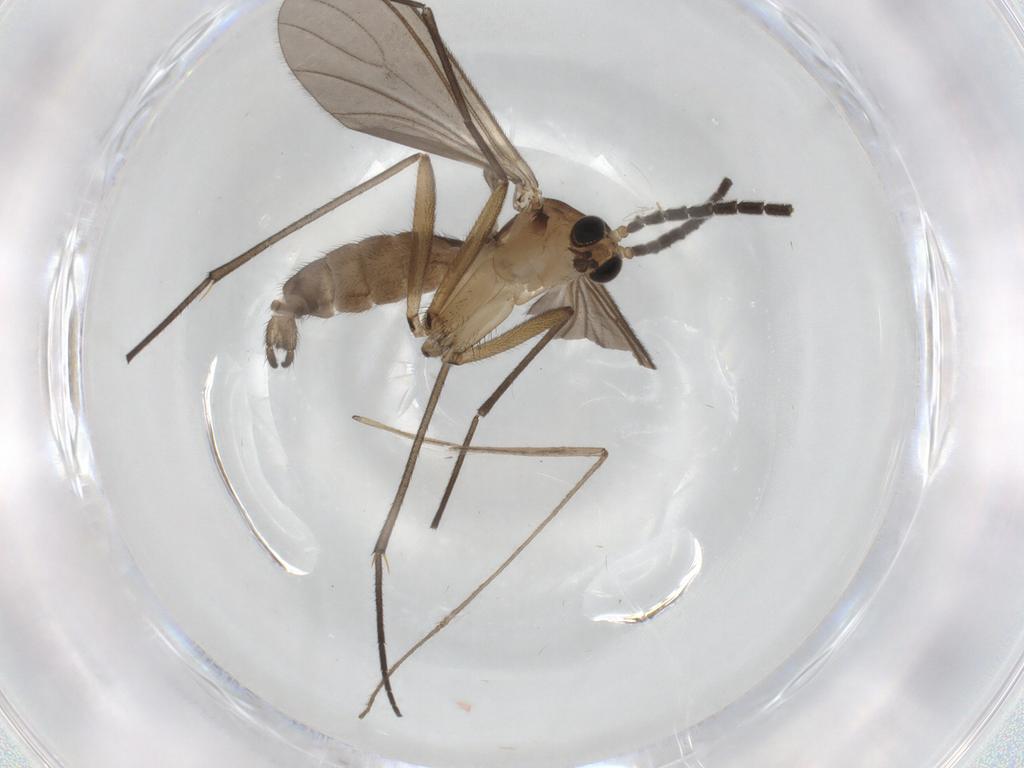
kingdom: Animalia
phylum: Arthropoda
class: Insecta
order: Diptera
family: Limoniidae
